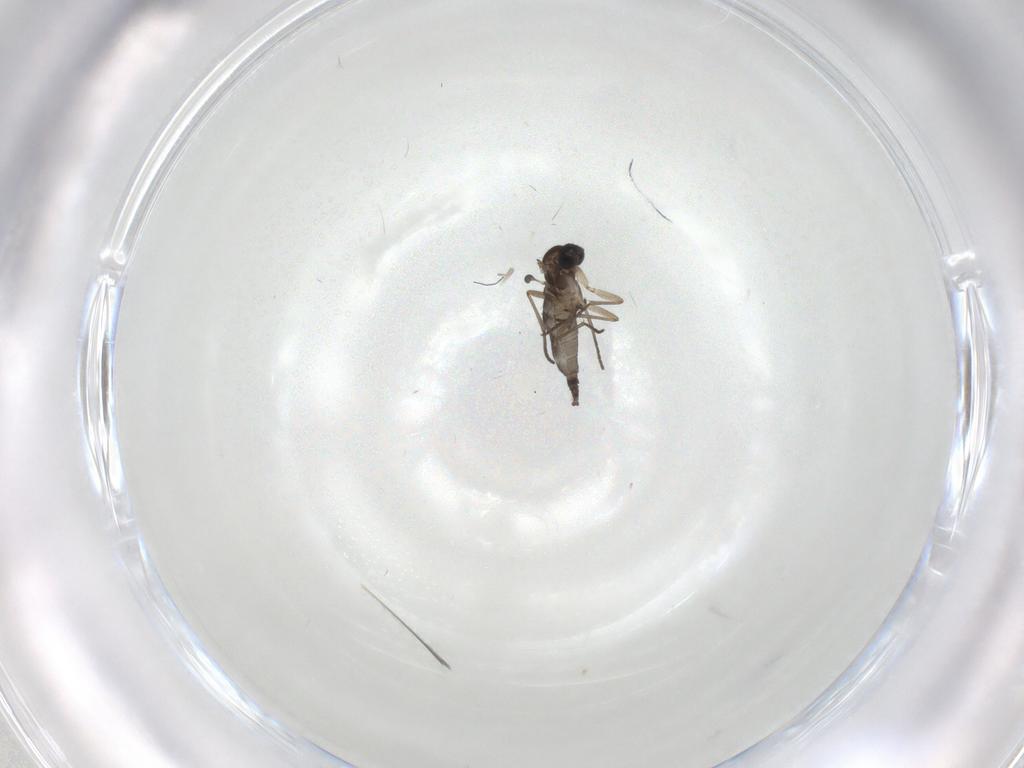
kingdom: Animalia
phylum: Arthropoda
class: Insecta
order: Diptera
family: Sciaridae
